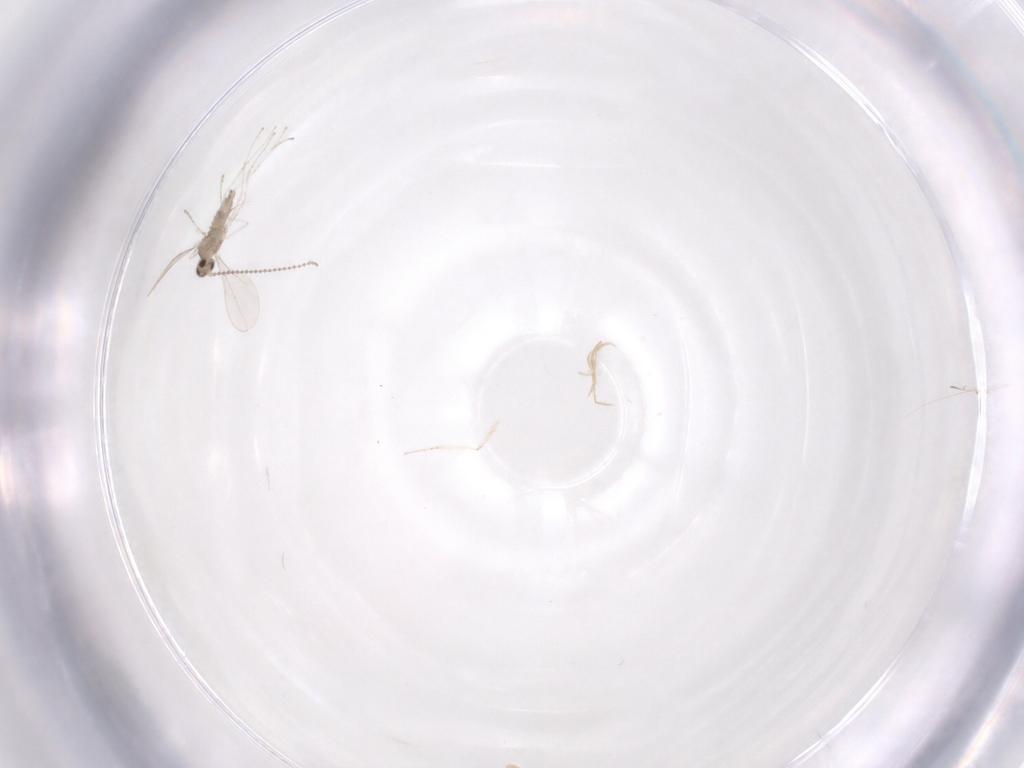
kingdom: Animalia
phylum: Arthropoda
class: Insecta
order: Diptera
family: Cecidomyiidae
